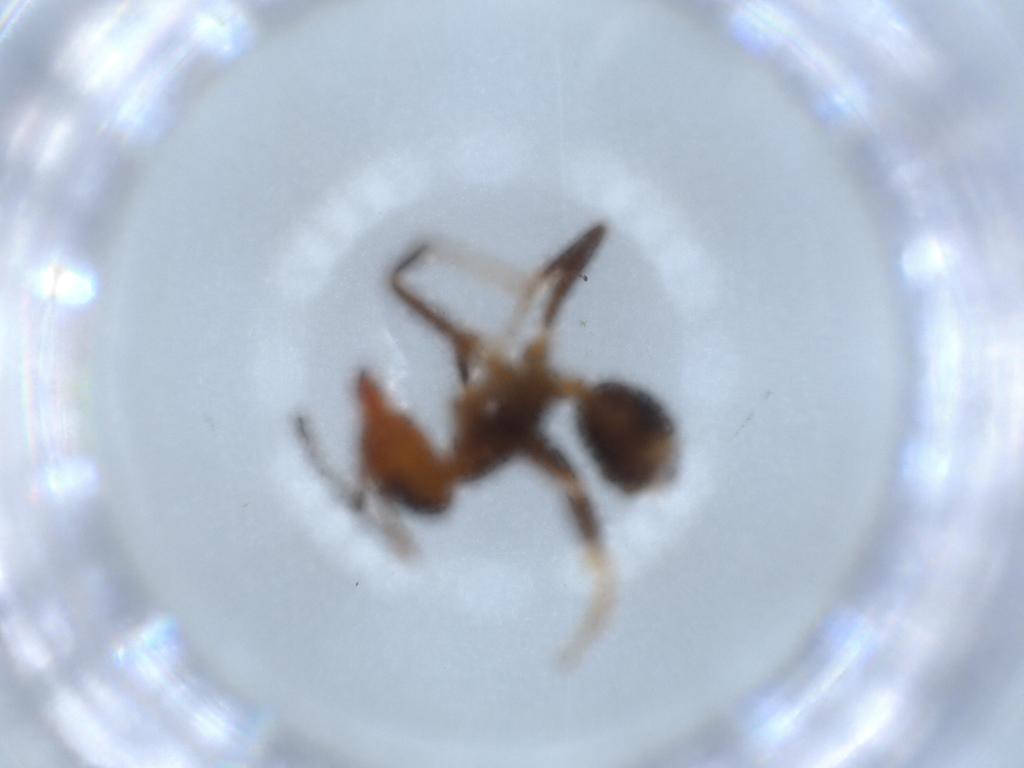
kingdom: Animalia
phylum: Arthropoda
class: Insecta
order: Hymenoptera
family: Formicidae
